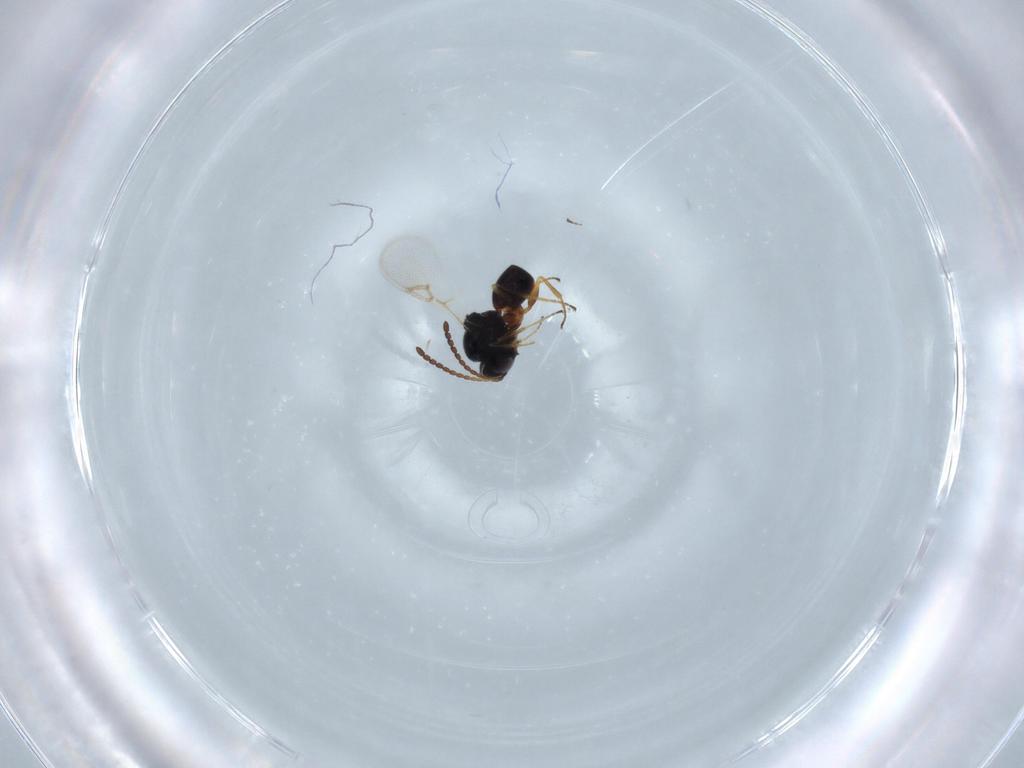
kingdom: Animalia
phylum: Arthropoda
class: Insecta
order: Hymenoptera
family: Figitidae
